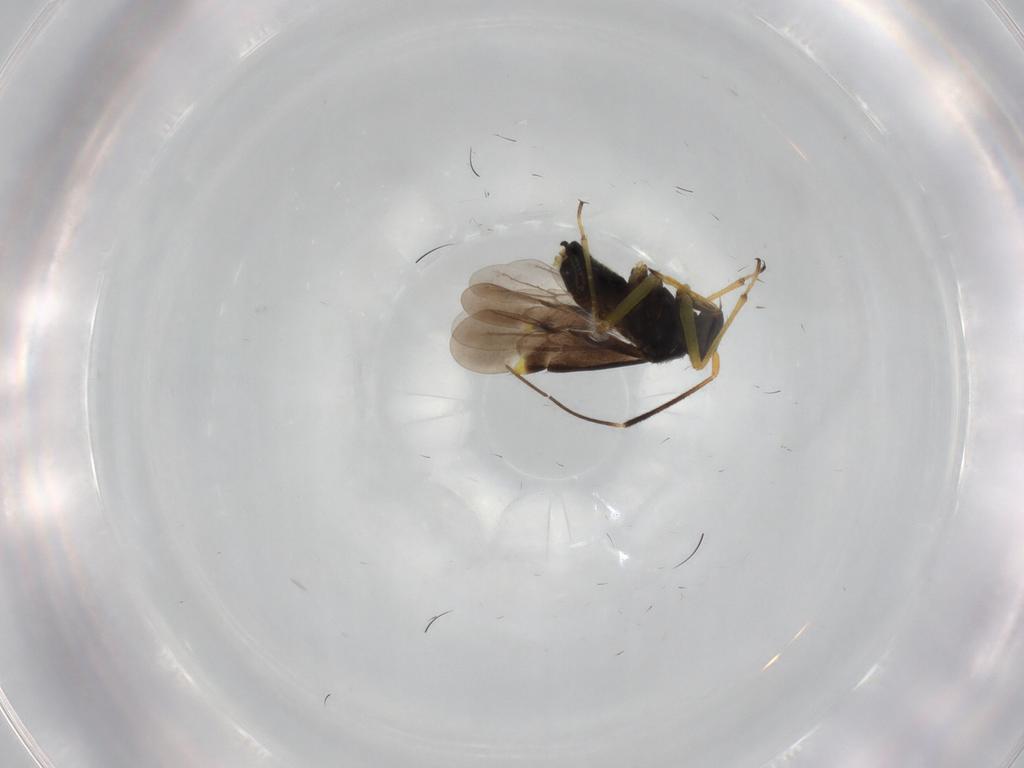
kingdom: Animalia
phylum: Arthropoda
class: Insecta
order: Hemiptera
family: Miridae
